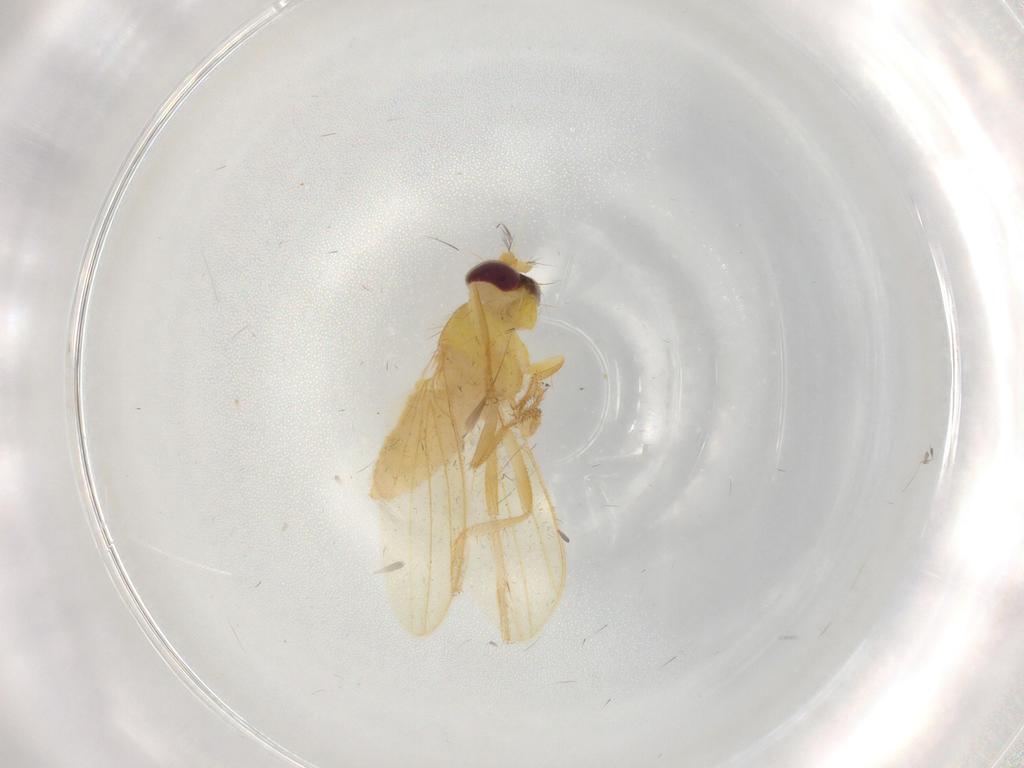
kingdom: Animalia
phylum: Arthropoda
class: Insecta
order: Diptera
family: Periscelididae
